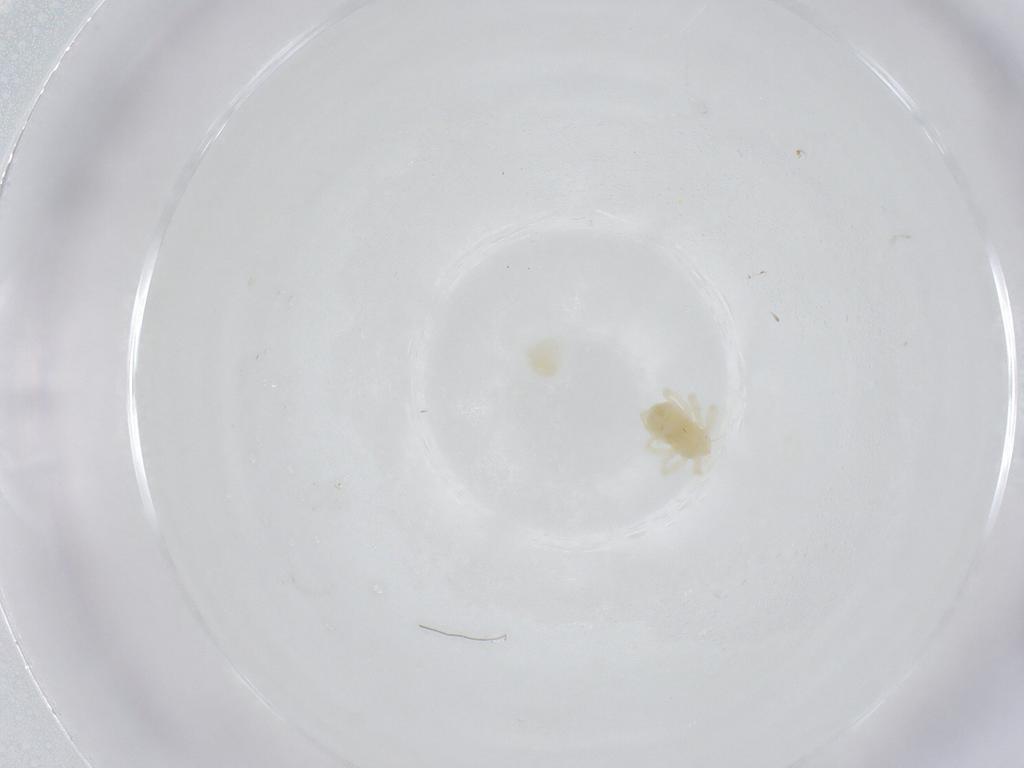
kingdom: Animalia
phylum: Arthropoda
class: Arachnida
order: Trombidiformes
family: Anystidae
